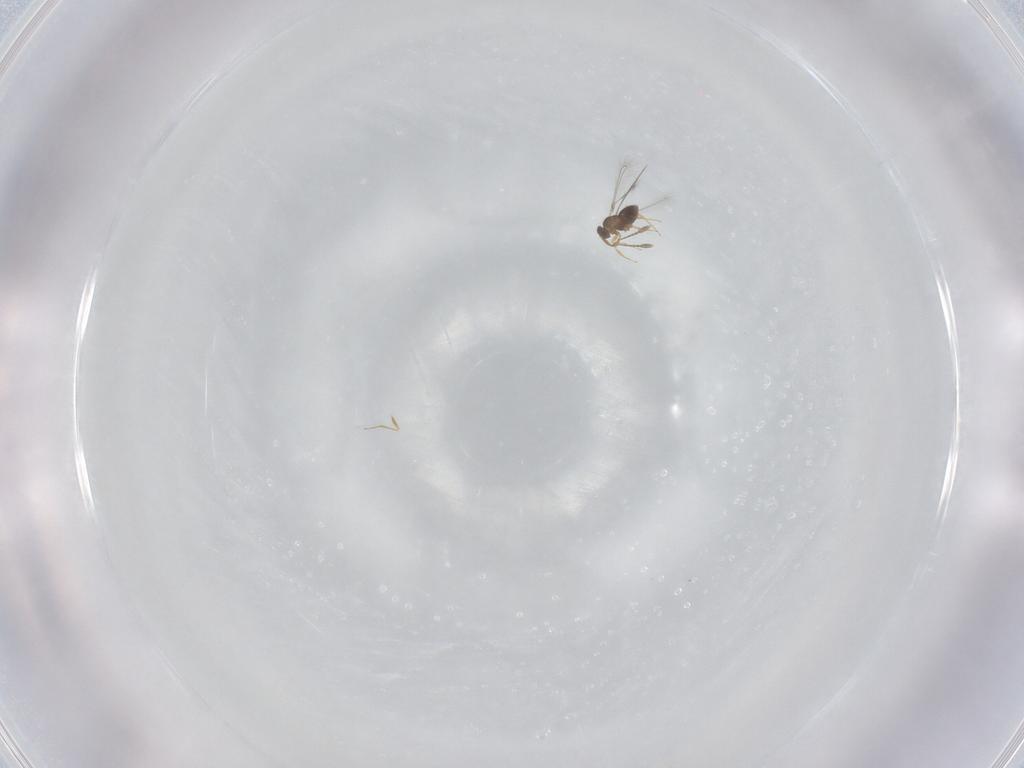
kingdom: Animalia
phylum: Arthropoda
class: Insecta
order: Hymenoptera
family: Mymaridae
